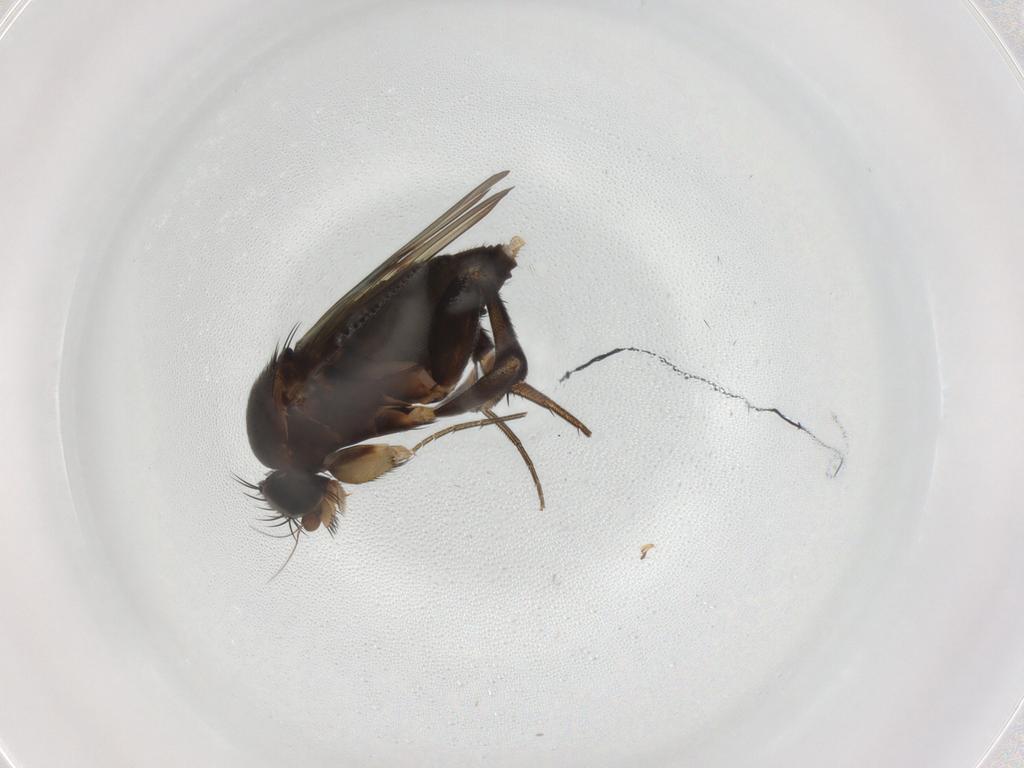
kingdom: Animalia
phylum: Arthropoda
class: Insecta
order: Diptera
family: Phoridae
